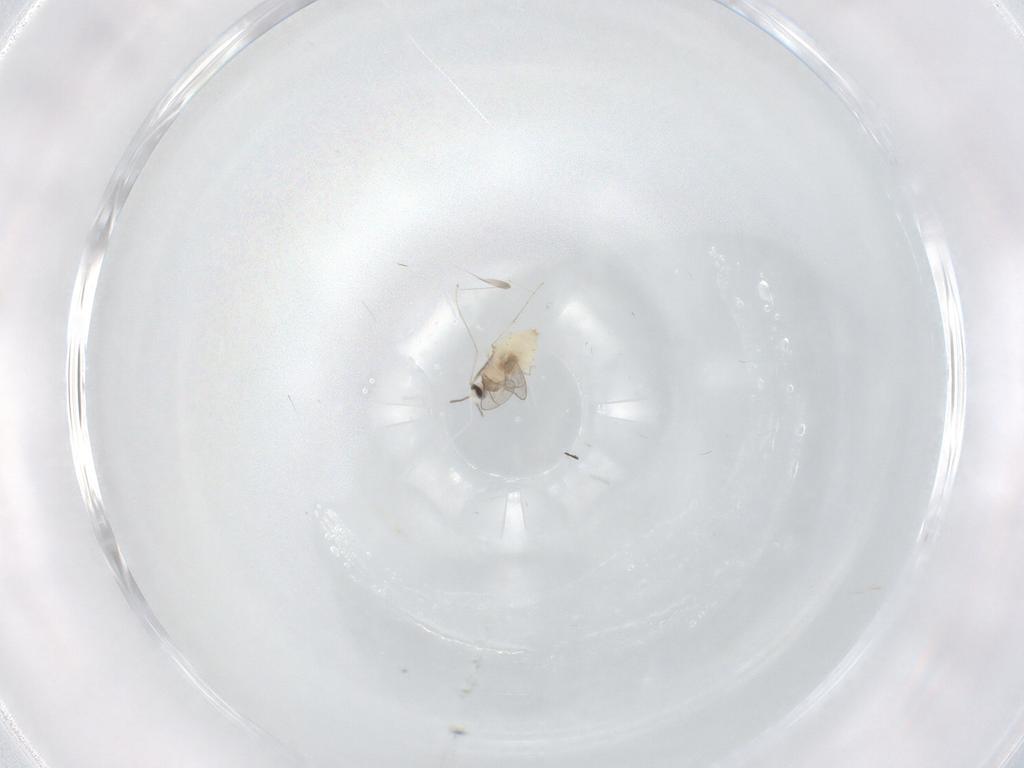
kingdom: Animalia
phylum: Arthropoda
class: Insecta
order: Diptera
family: Cecidomyiidae
